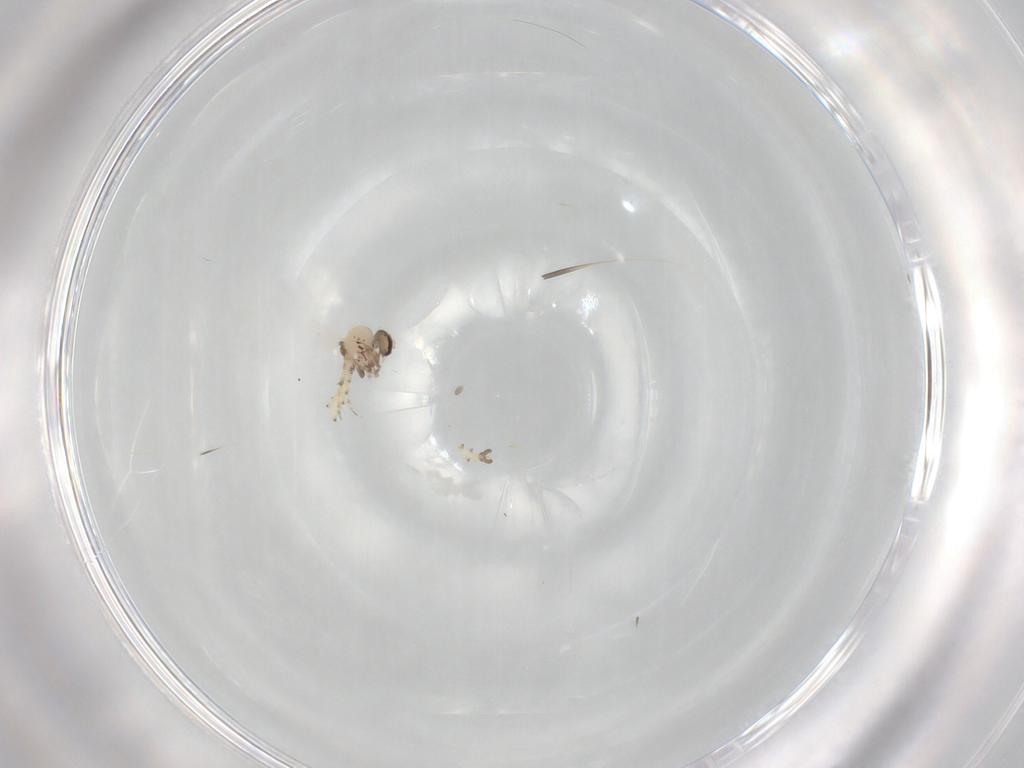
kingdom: Animalia
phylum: Arthropoda
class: Insecta
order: Diptera
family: Ceratopogonidae
